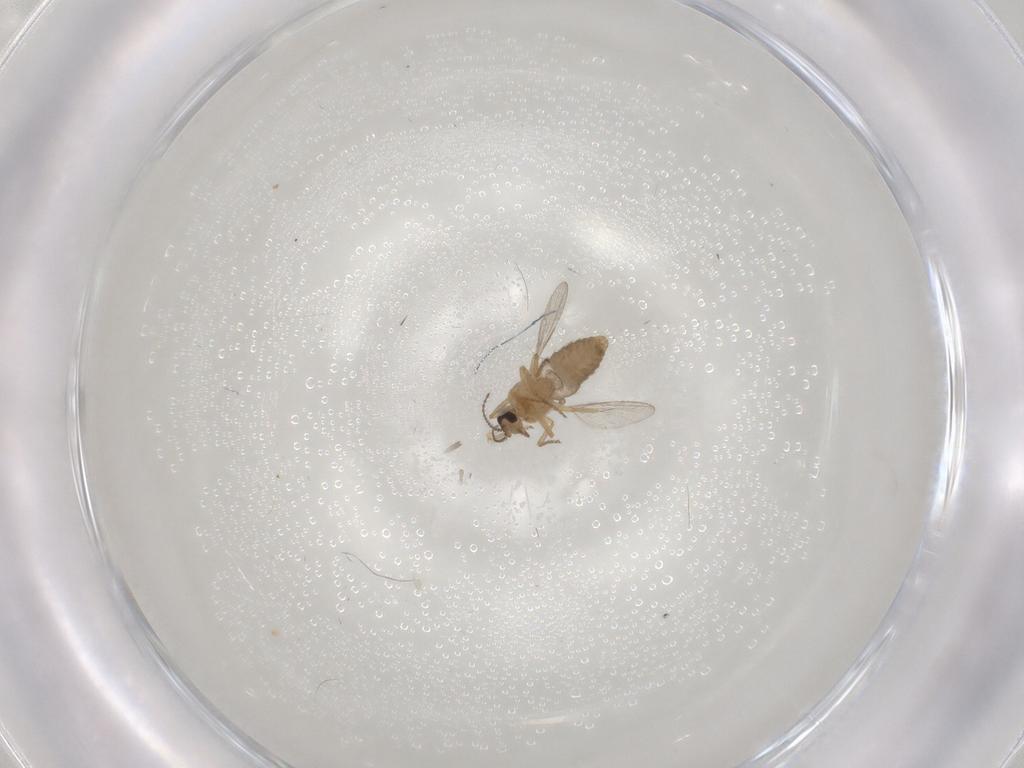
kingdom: Animalia
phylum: Arthropoda
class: Insecta
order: Diptera
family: Ceratopogonidae
